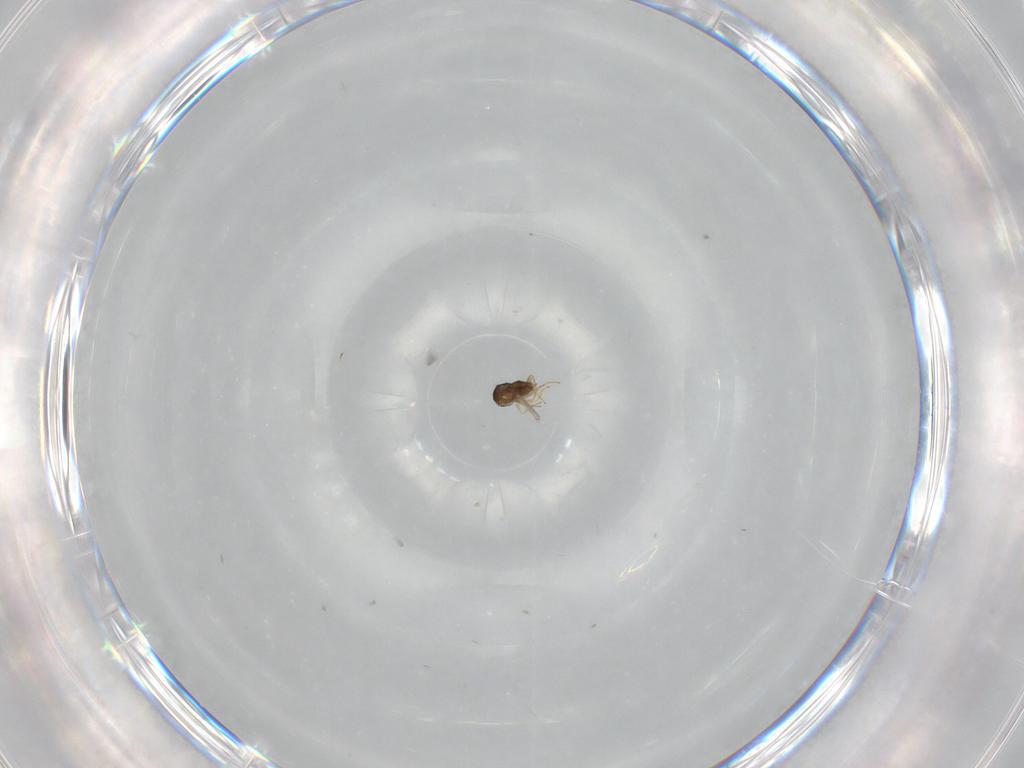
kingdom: Animalia
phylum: Arthropoda
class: Insecta
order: Hymenoptera
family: Encyrtidae
